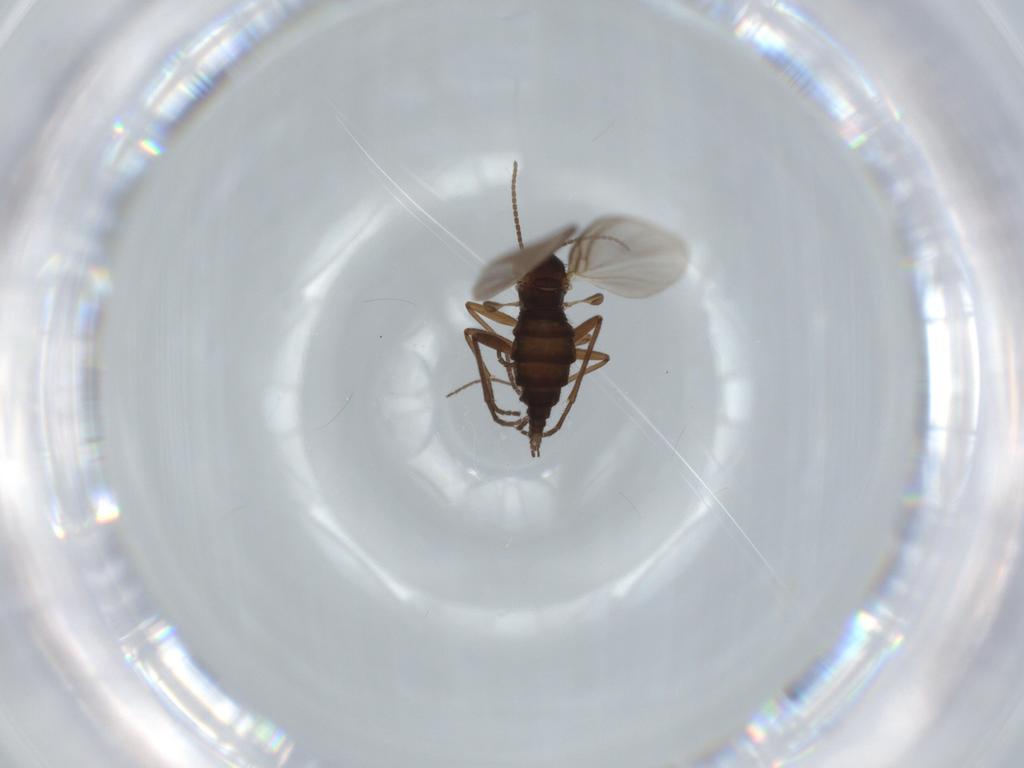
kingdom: Animalia
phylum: Arthropoda
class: Insecta
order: Diptera
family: Sciaridae
